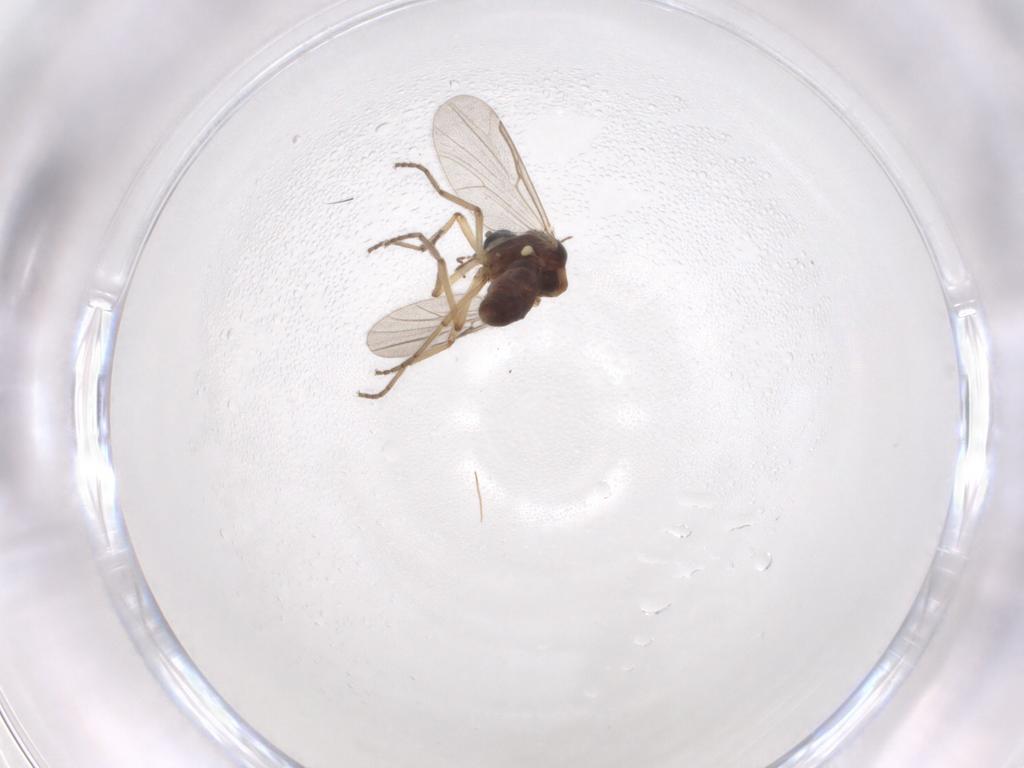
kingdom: Animalia
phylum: Arthropoda
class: Insecta
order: Diptera
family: Ceratopogonidae
